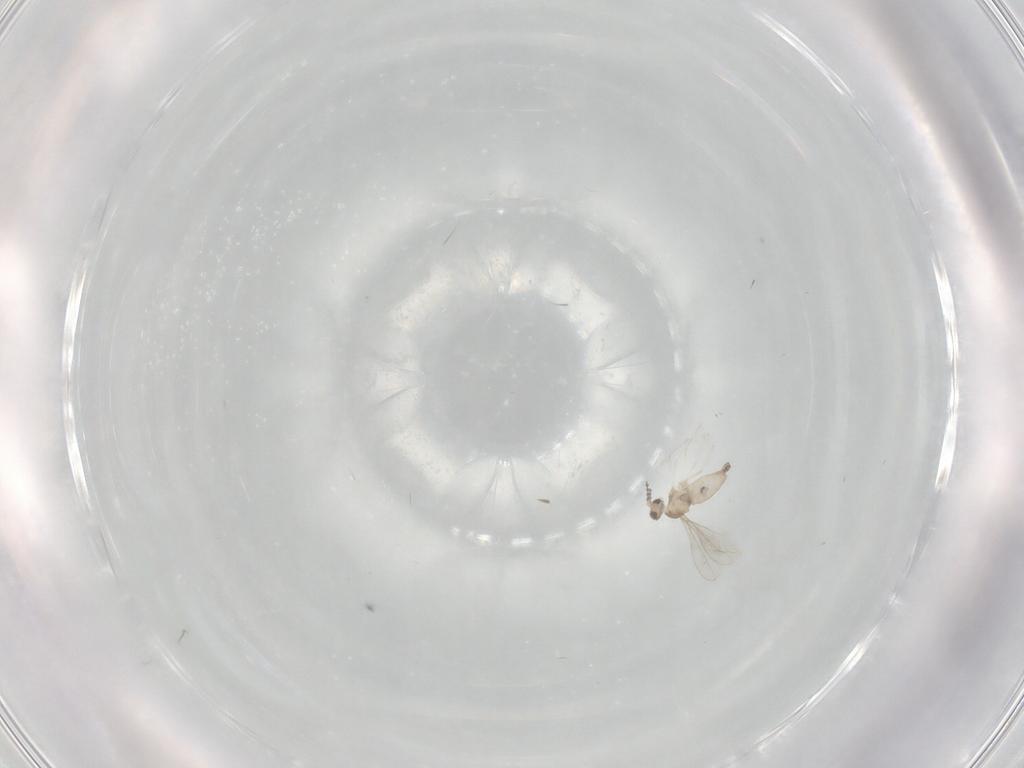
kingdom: Animalia
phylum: Arthropoda
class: Insecta
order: Diptera
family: Cecidomyiidae
